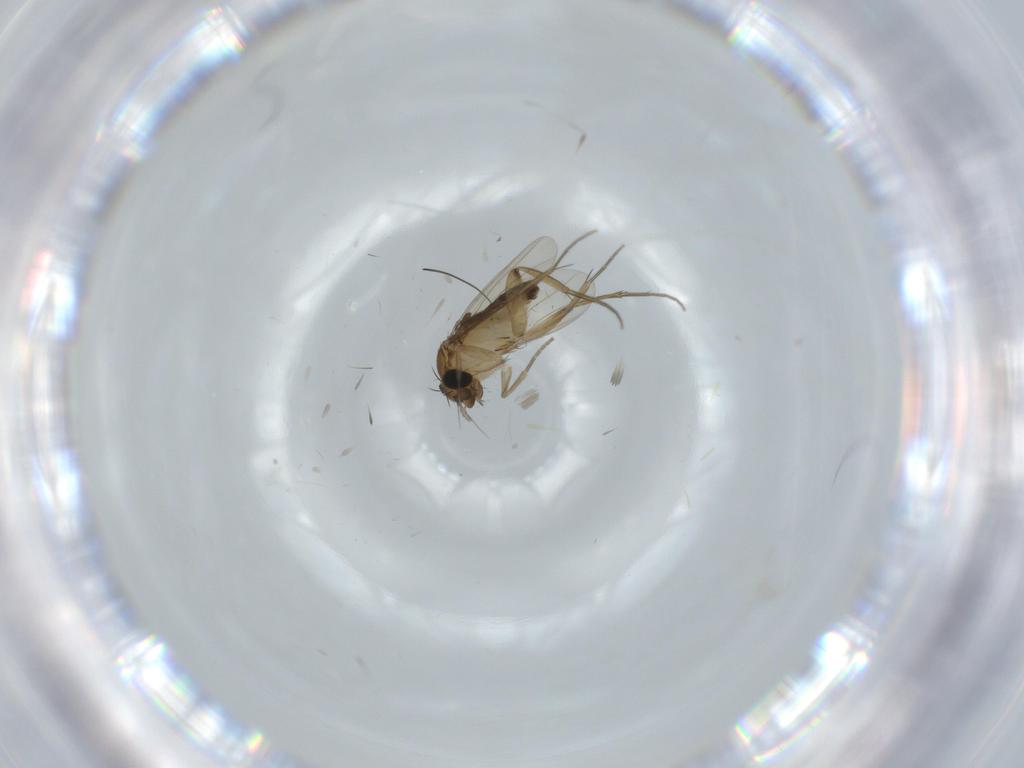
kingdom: Animalia
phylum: Arthropoda
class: Insecta
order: Diptera
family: Phoridae
